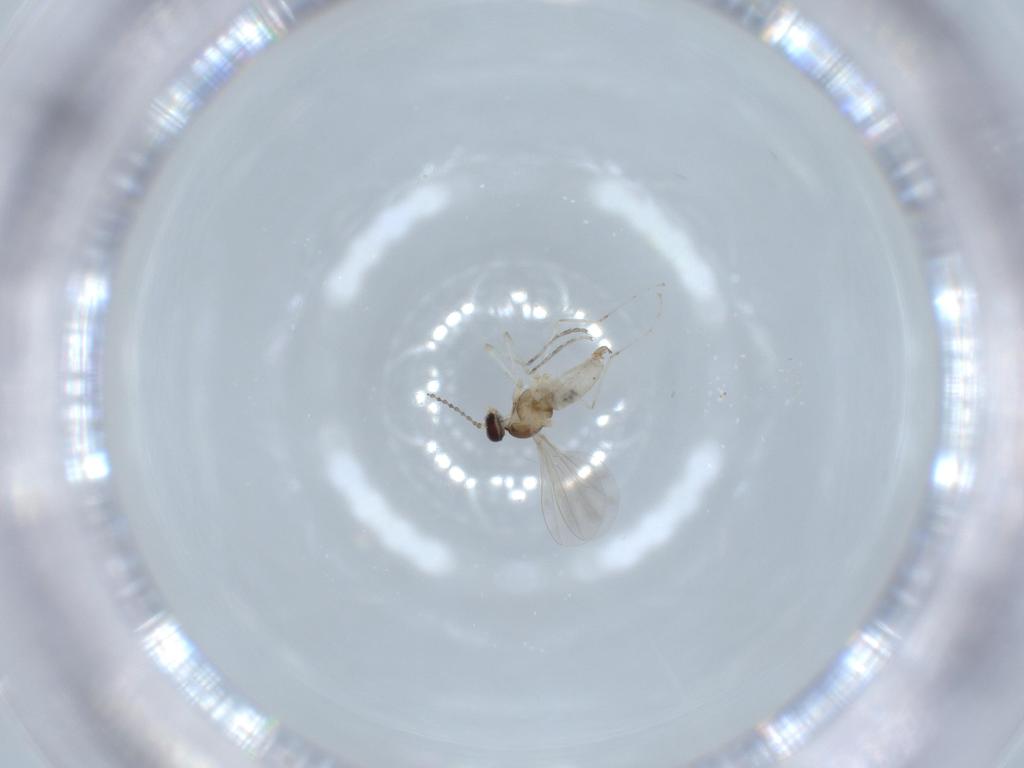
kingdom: Animalia
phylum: Arthropoda
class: Insecta
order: Diptera
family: Cecidomyiidae
